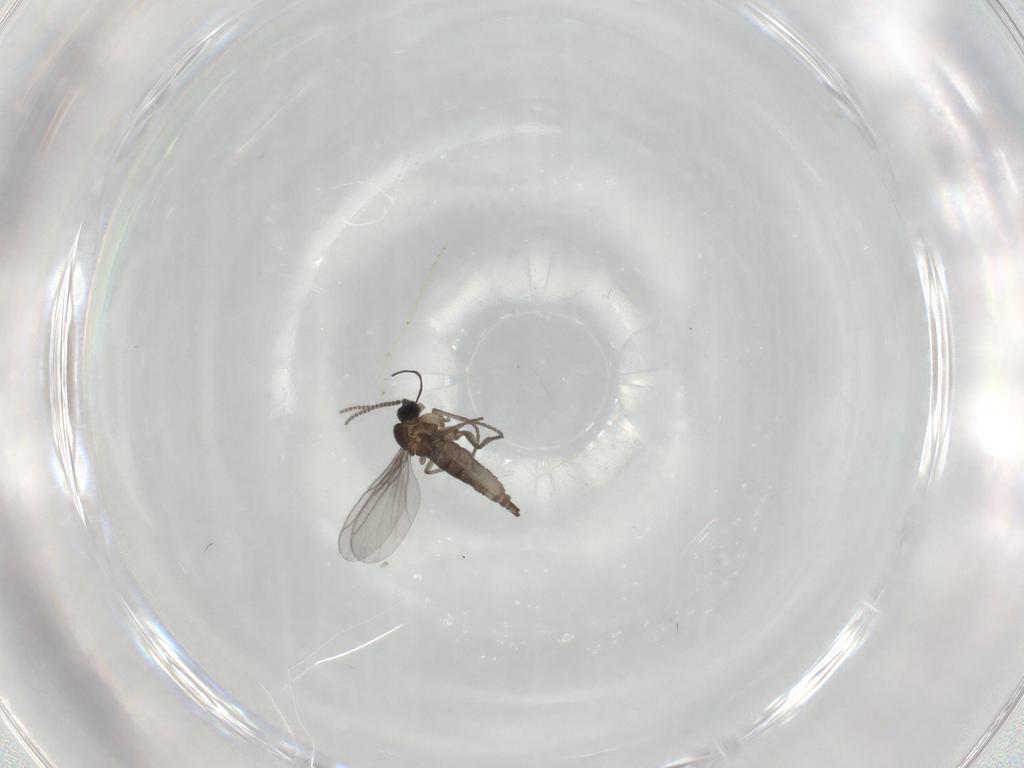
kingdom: Animalia
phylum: Arthropoda
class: Insecta
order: Diptera
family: Sciaridae
